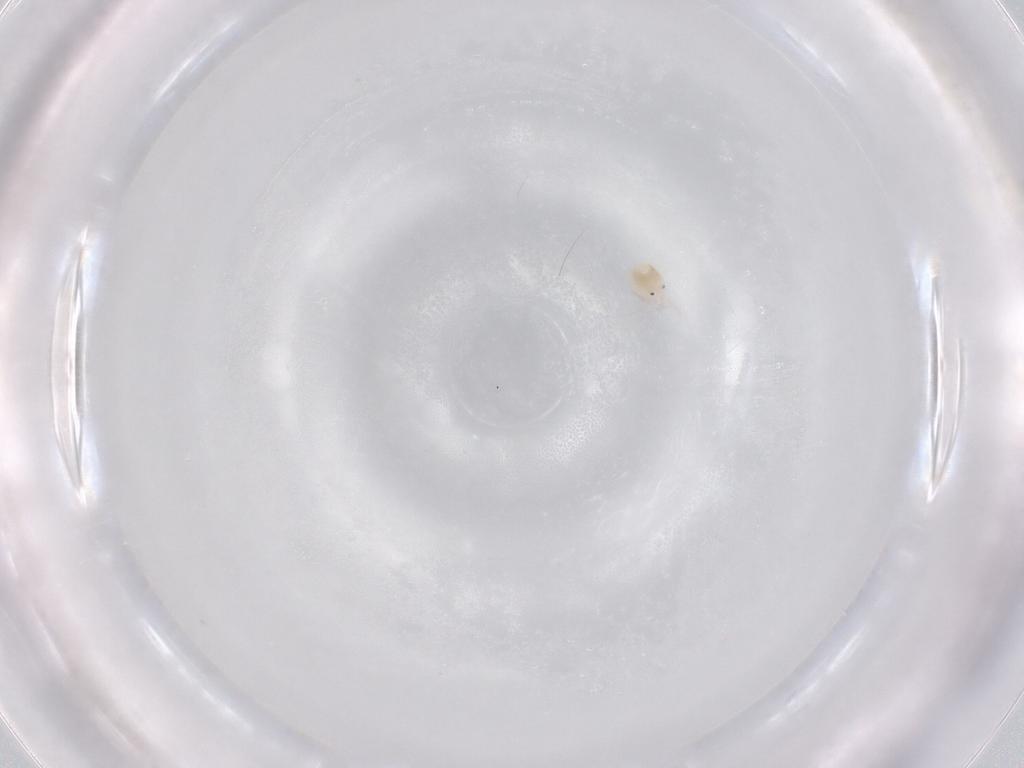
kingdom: Animalia
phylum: Arthropoda
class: Arachnida
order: Trombidiformes
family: Lebertiidae
